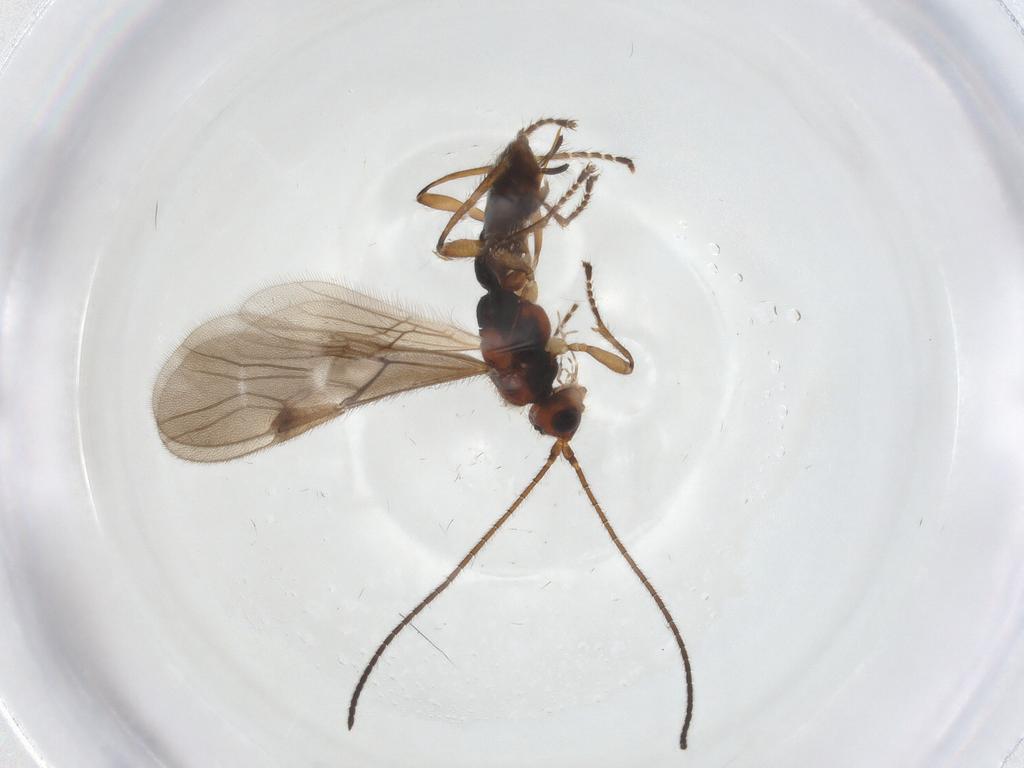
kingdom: Animalia
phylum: Arthropoda
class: Insecta
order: Hymenoptera
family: Braconidae
